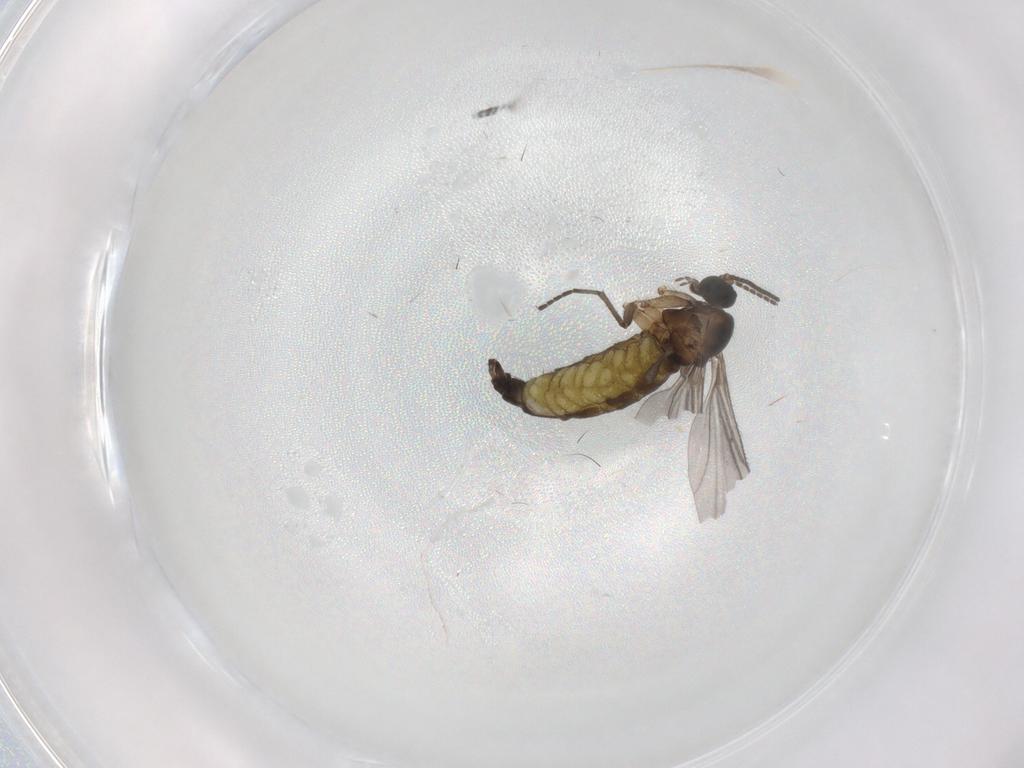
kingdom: Animalia
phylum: Arthropoda
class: Insecta
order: Diptera
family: Sciaridae
